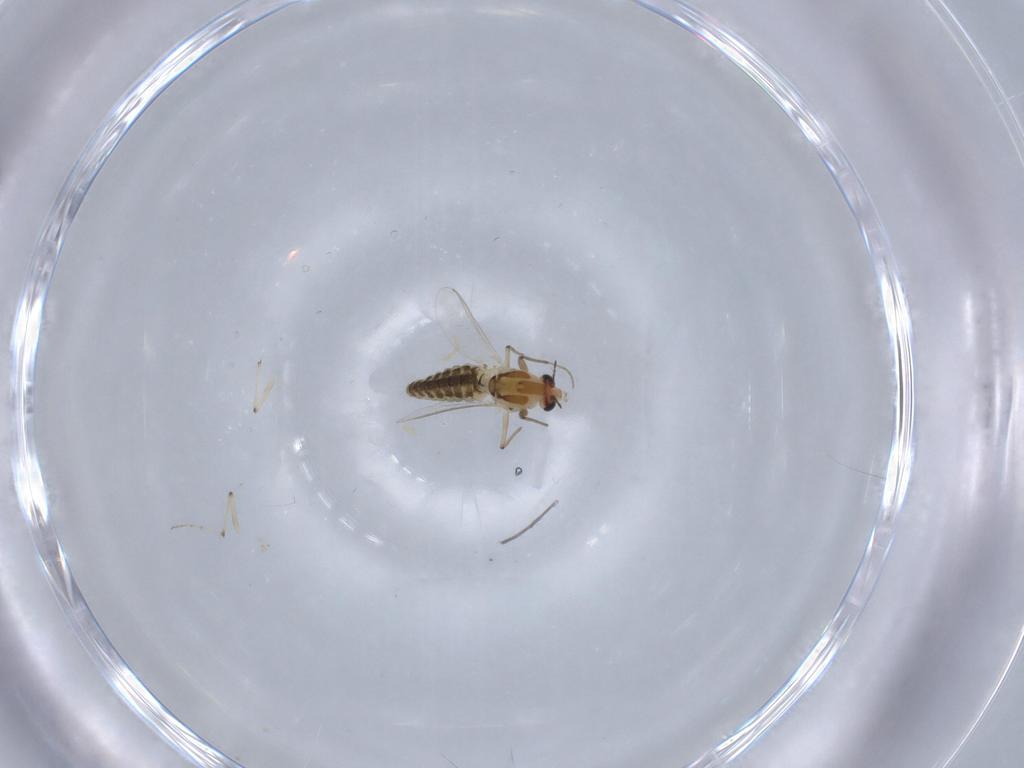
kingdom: Animalia
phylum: Arthropoda
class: Insecta
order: Diptera
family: Chironomidae
